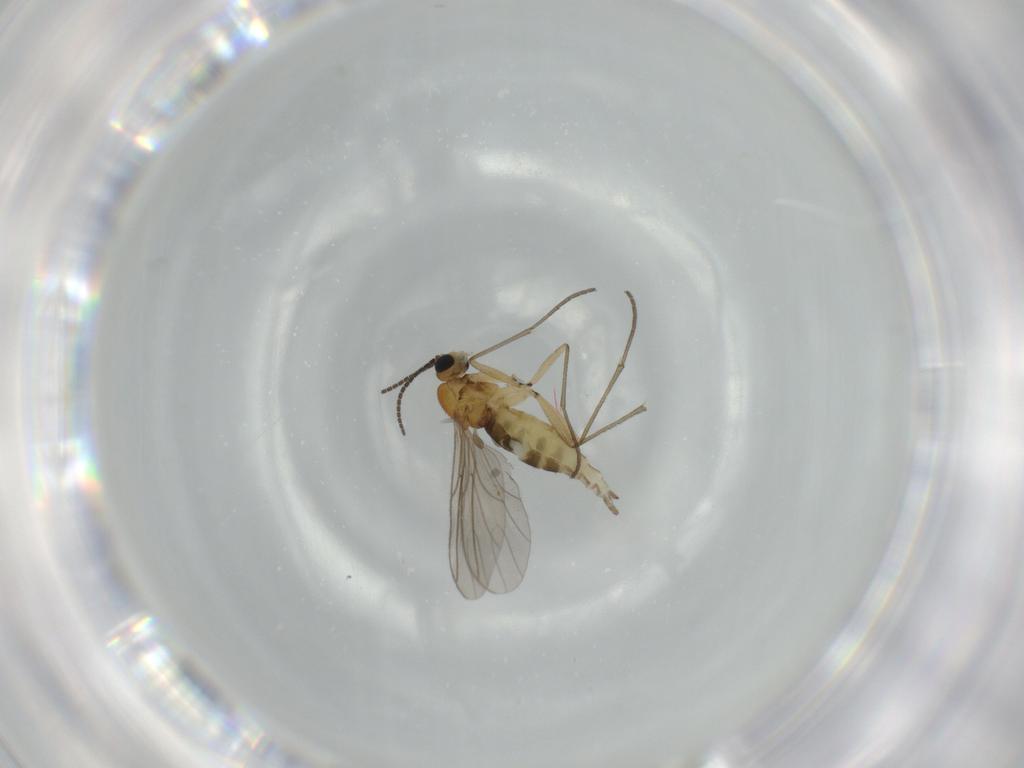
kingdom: Animalia
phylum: Arthropoda
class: Insecta
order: Diptera
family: Sciaridae
